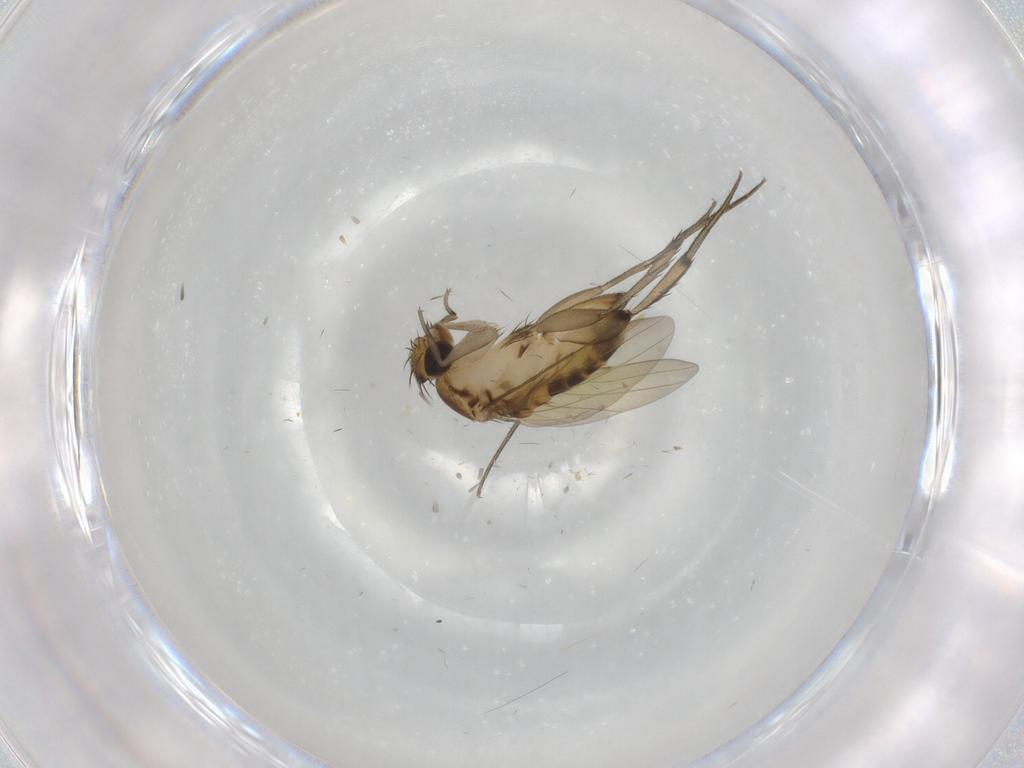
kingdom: Animalia
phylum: Arthropoda
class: Insecta
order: Diptera
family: Phoridae
